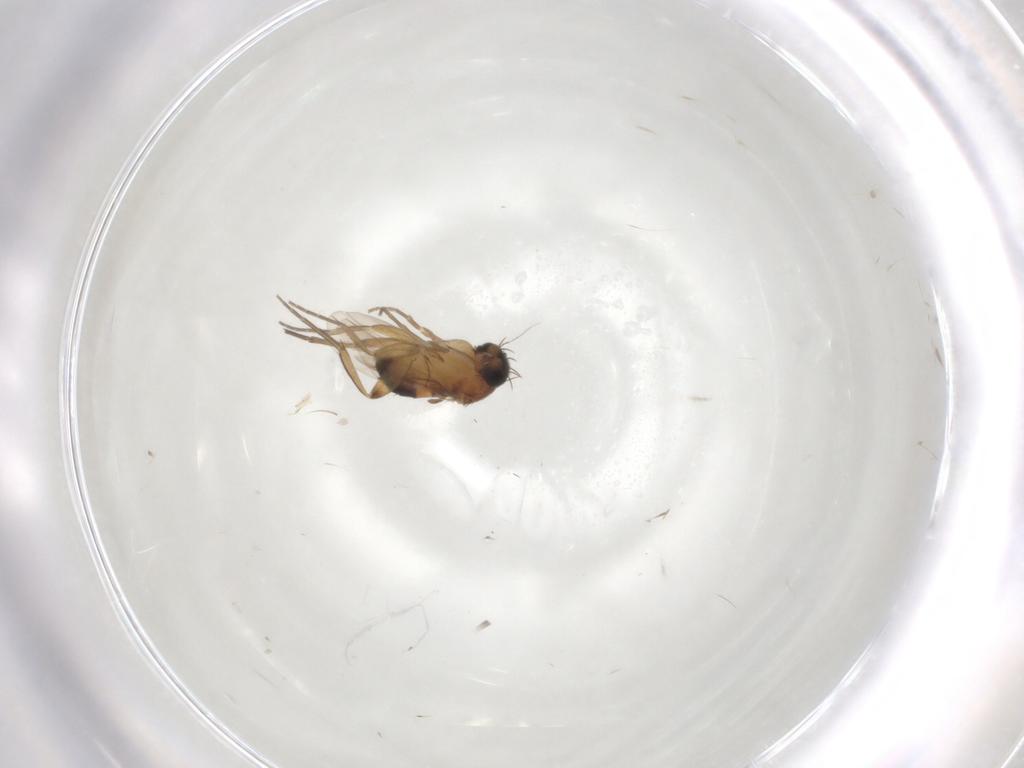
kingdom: Animalia
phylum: Arthropoda
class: Insecta
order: Diptera
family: Phoridae
